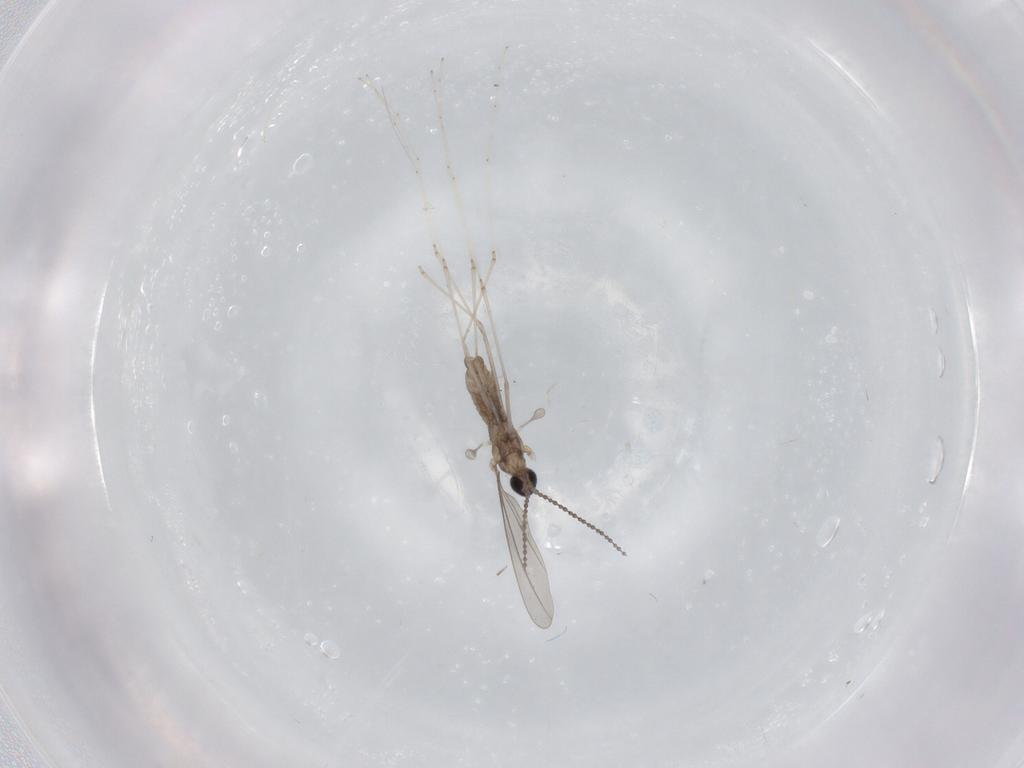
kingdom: Animalia
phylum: Arthropoda
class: Insecta
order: Diptera
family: Cecidomyiidae
